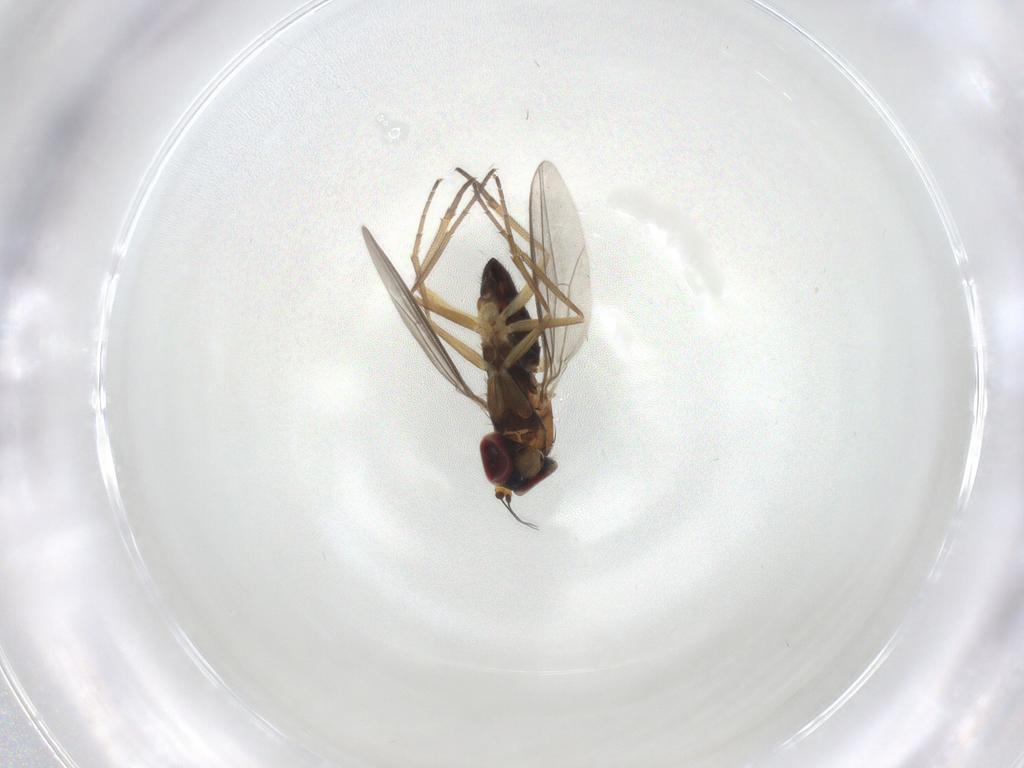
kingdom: Animalia
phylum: Arthropoda
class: Insecta
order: Diptera
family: Dolichopodidae
